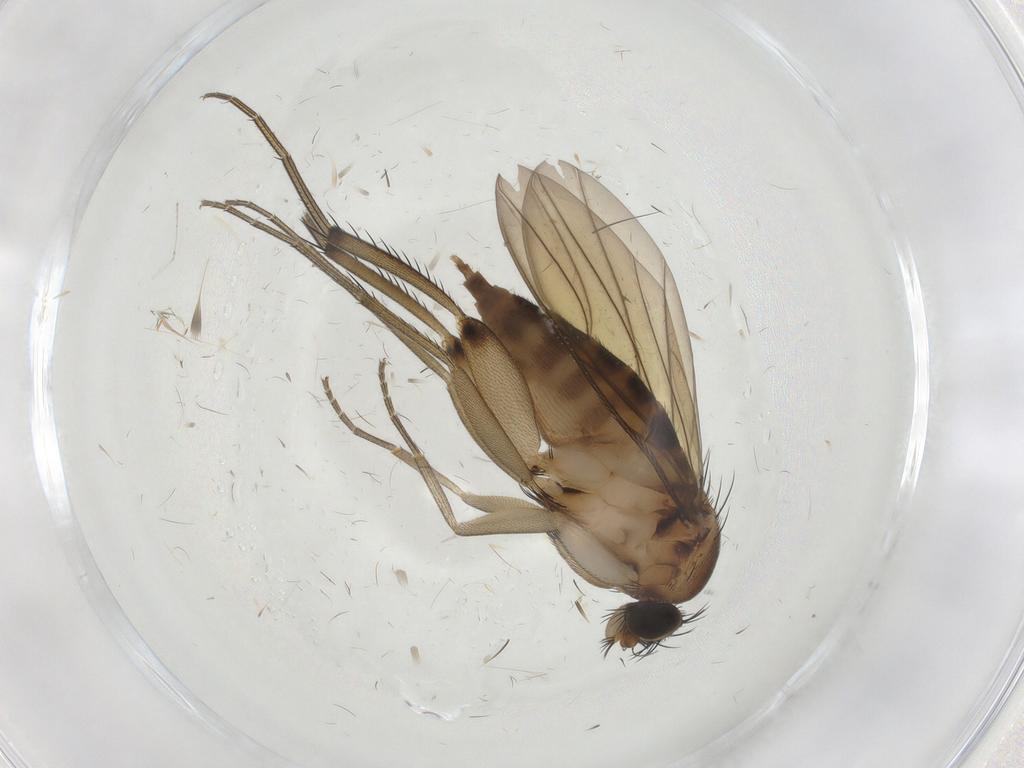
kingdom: Animalia
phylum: Arthropoda
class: Insecta
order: Diptera
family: Phoridae
